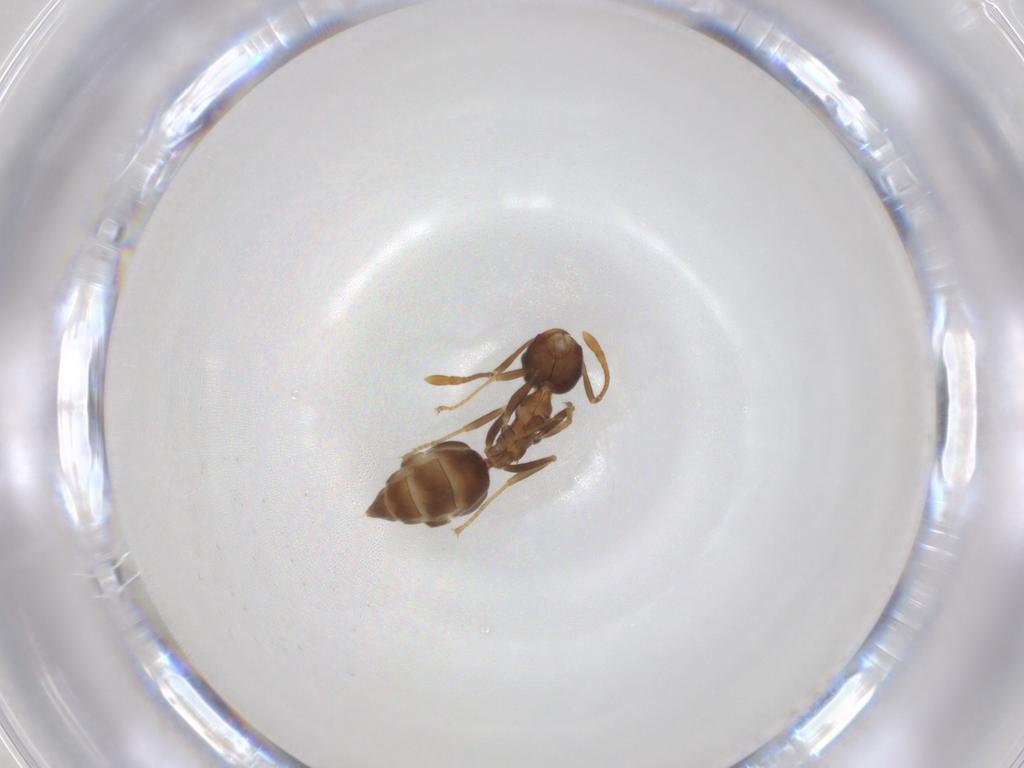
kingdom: Animalia
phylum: Arthropoda
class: Insecta
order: Hymenoptera
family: Formicidae
